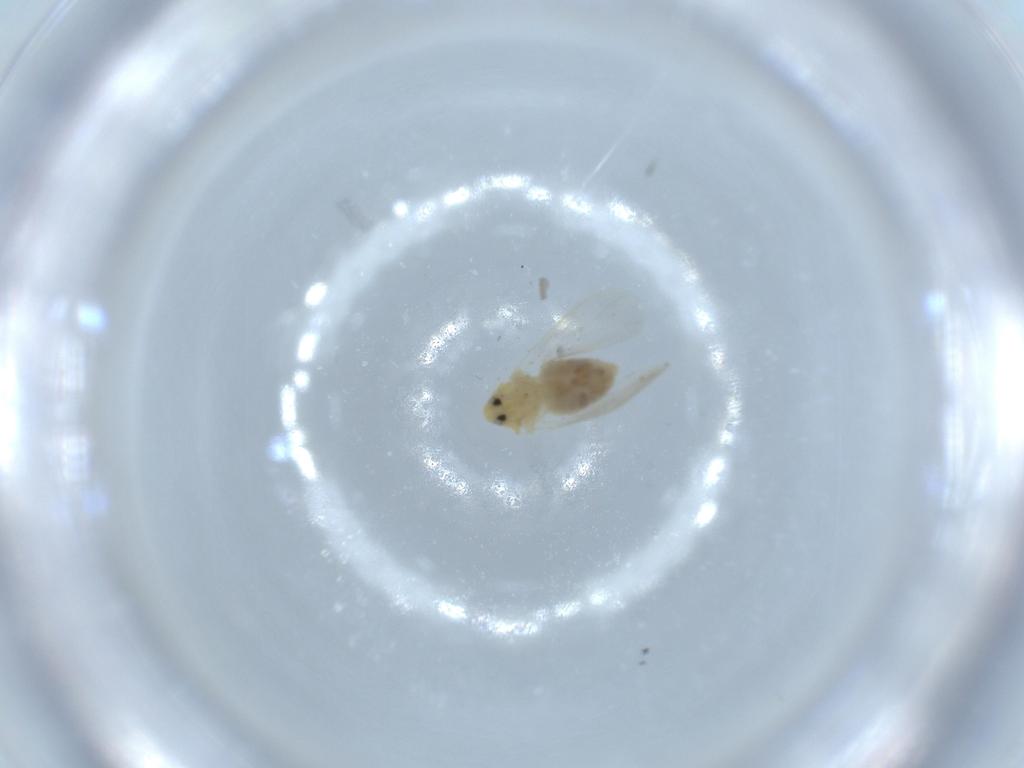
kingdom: Animalia
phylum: Arthropoda
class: Insecta
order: Hemiptera
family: Aleyrodidae
